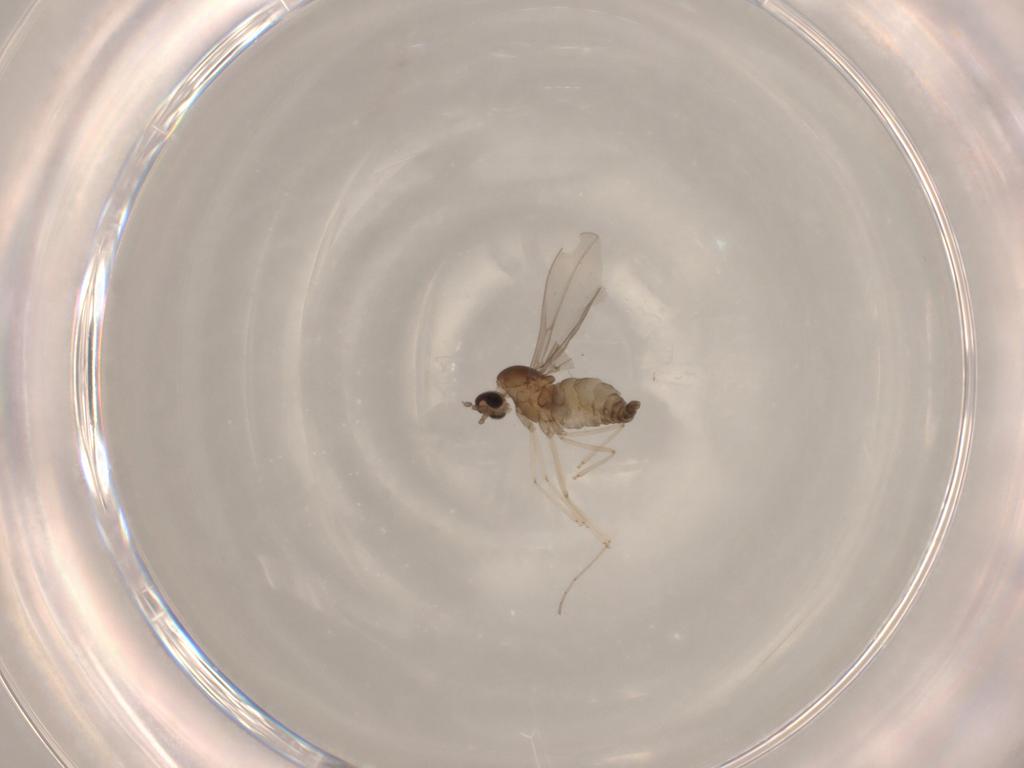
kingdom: Animalia
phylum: Arthropoda
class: Insecta
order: Diptera
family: Cecidomyiidae
